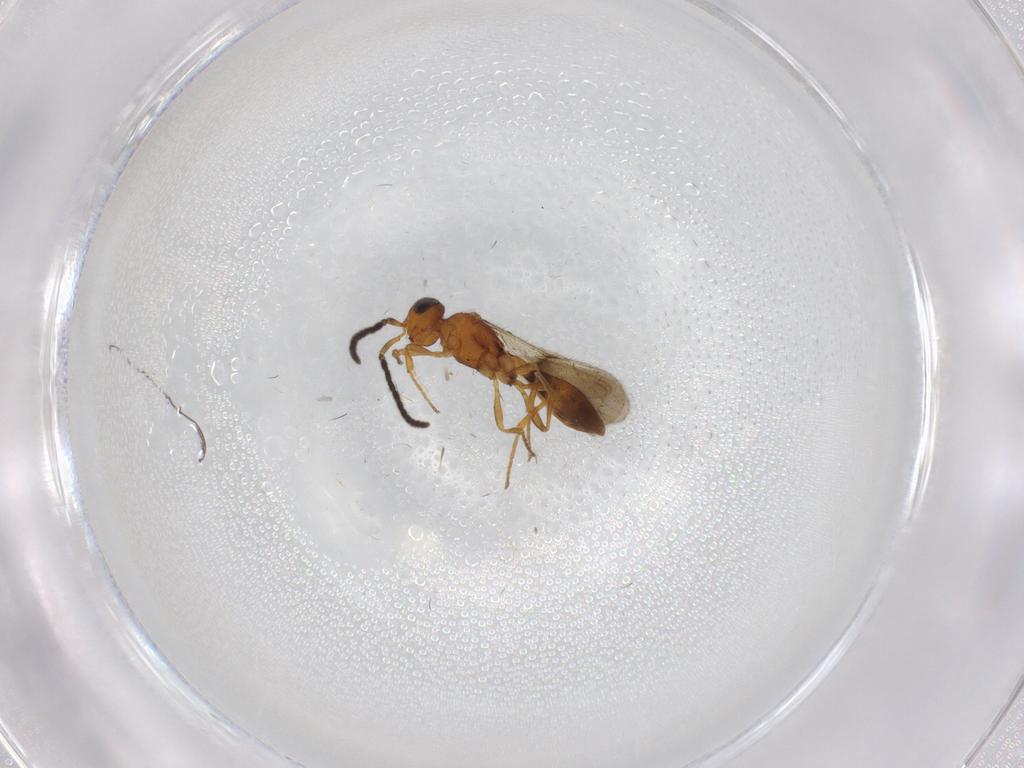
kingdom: Animalia
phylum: Arthropoda
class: Insecta
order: Hymenoptera
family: Scelionidae
